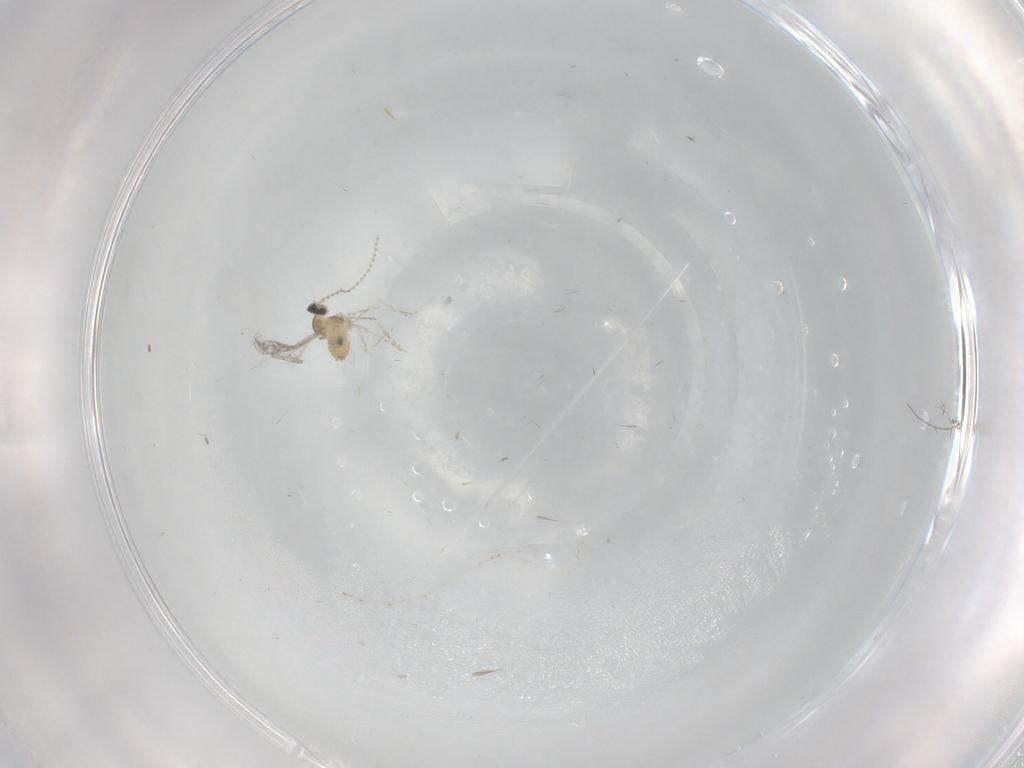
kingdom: Animalia
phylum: Arthropoda
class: Insecta
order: Diptera
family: Cecidomyiidae
